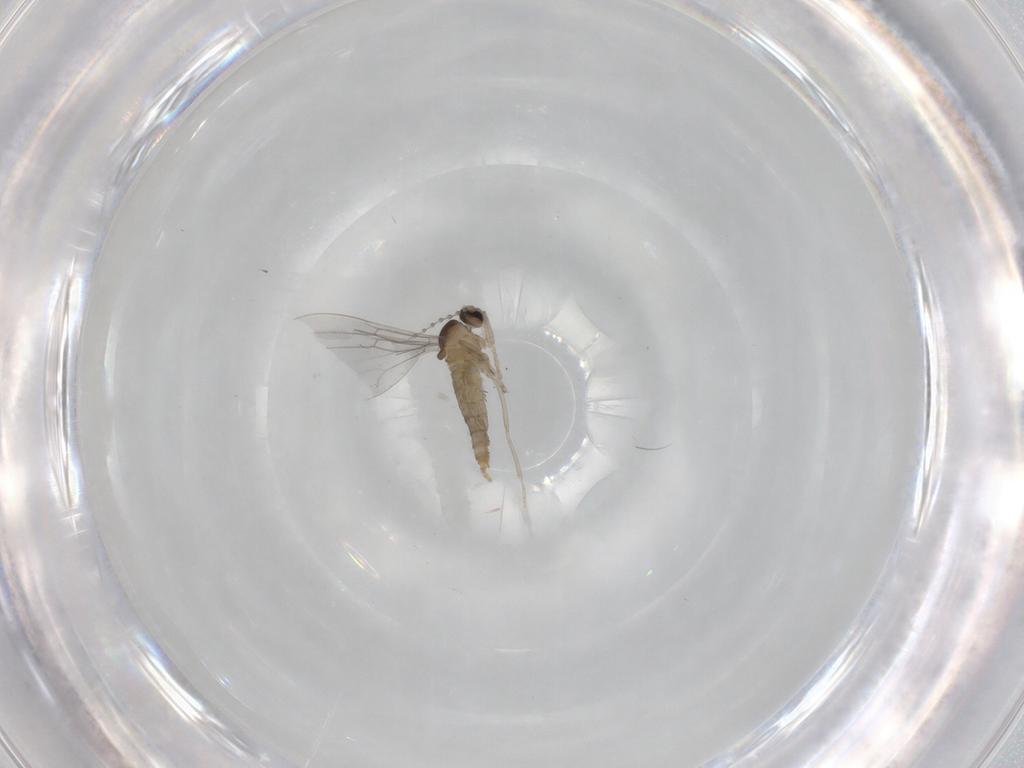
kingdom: Animalia
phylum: Arthropoda
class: Insecta
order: Diptera
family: Cecidomyiidae
